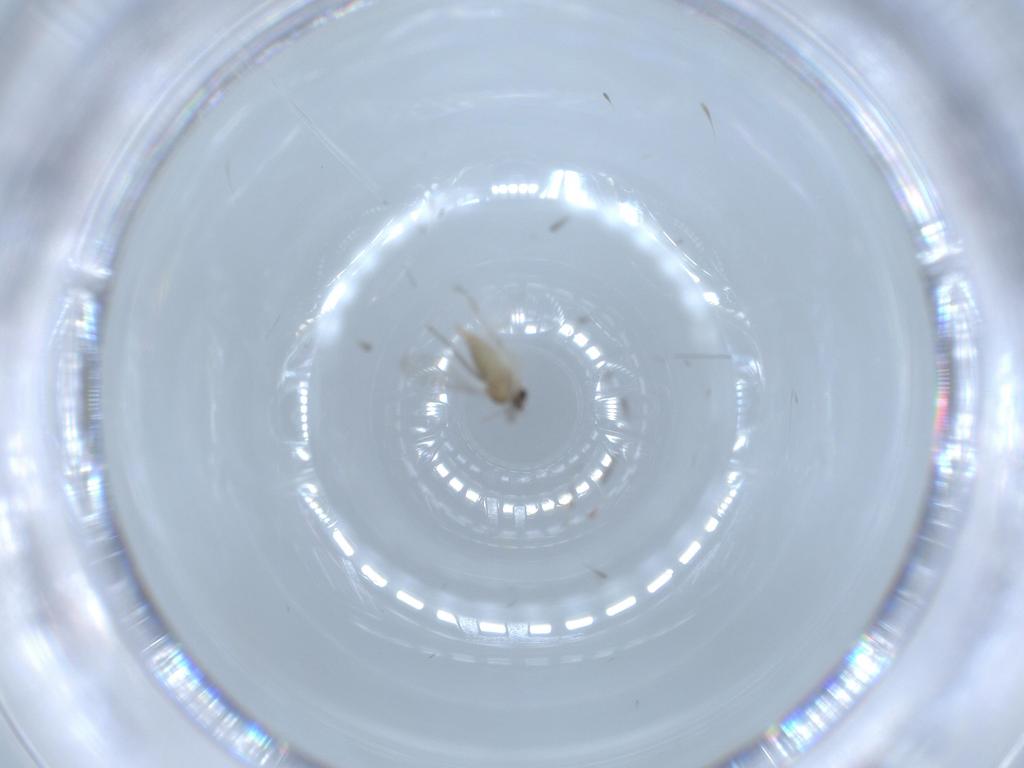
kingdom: Animalia
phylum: Arthropoda
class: Insecta
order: Diptera
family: Cecidomyiidae
